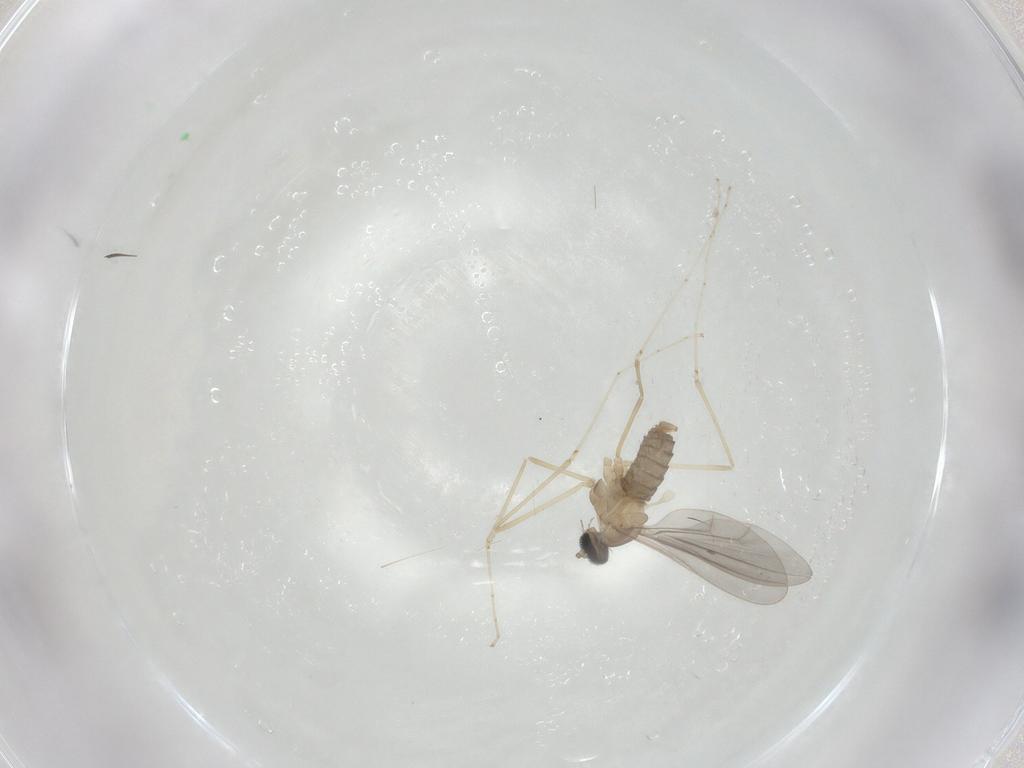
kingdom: Animalia
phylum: Arthropoda
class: Insecta
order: Diptera
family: Cecidomyiidae
